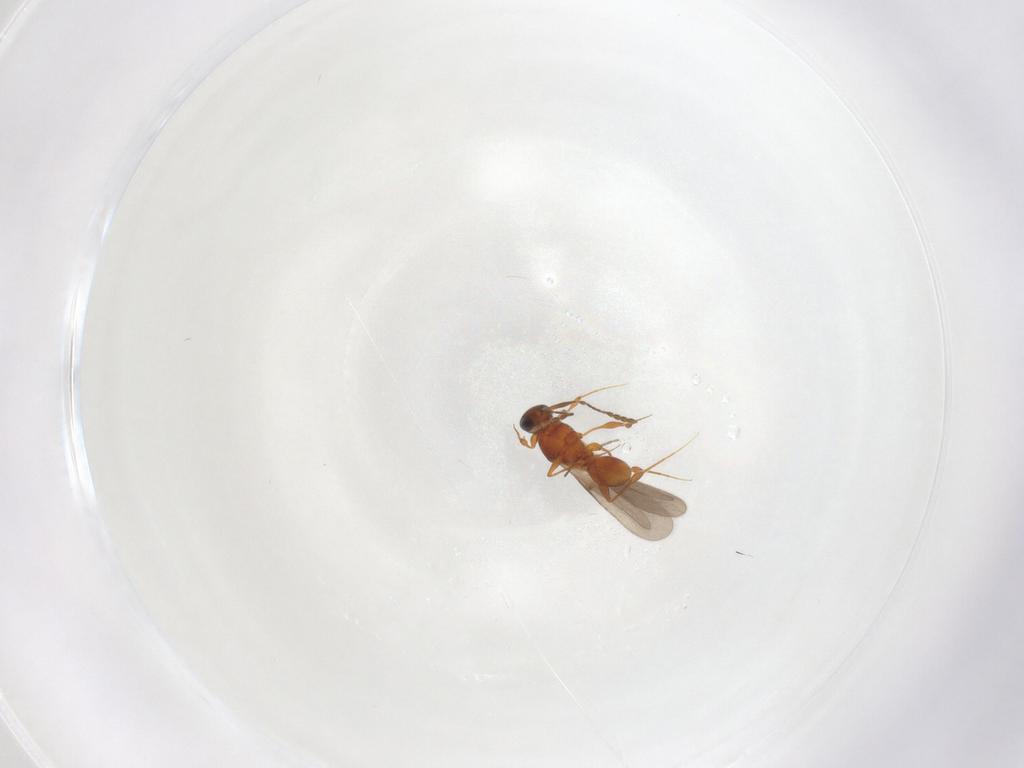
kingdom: Animalia
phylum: Arthropoda
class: Insecta
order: Hymenoptera
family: Platygastridae
